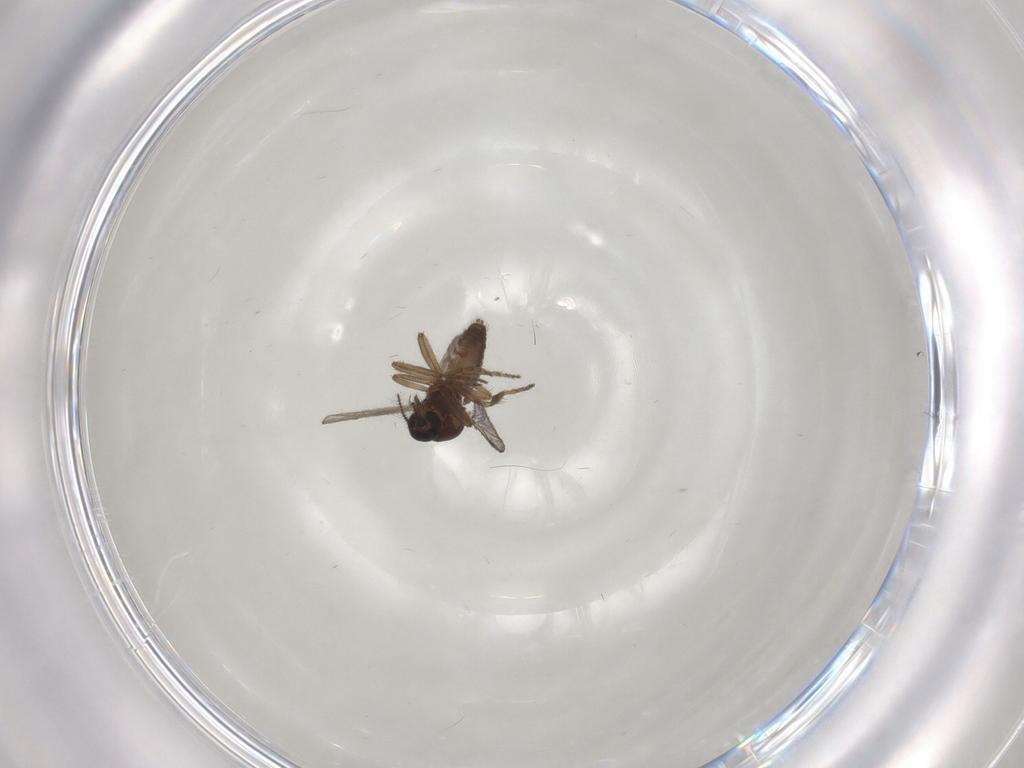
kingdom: Animalia
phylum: Arthropoda
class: Insecta
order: Diptera
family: Ceratopogonidae
